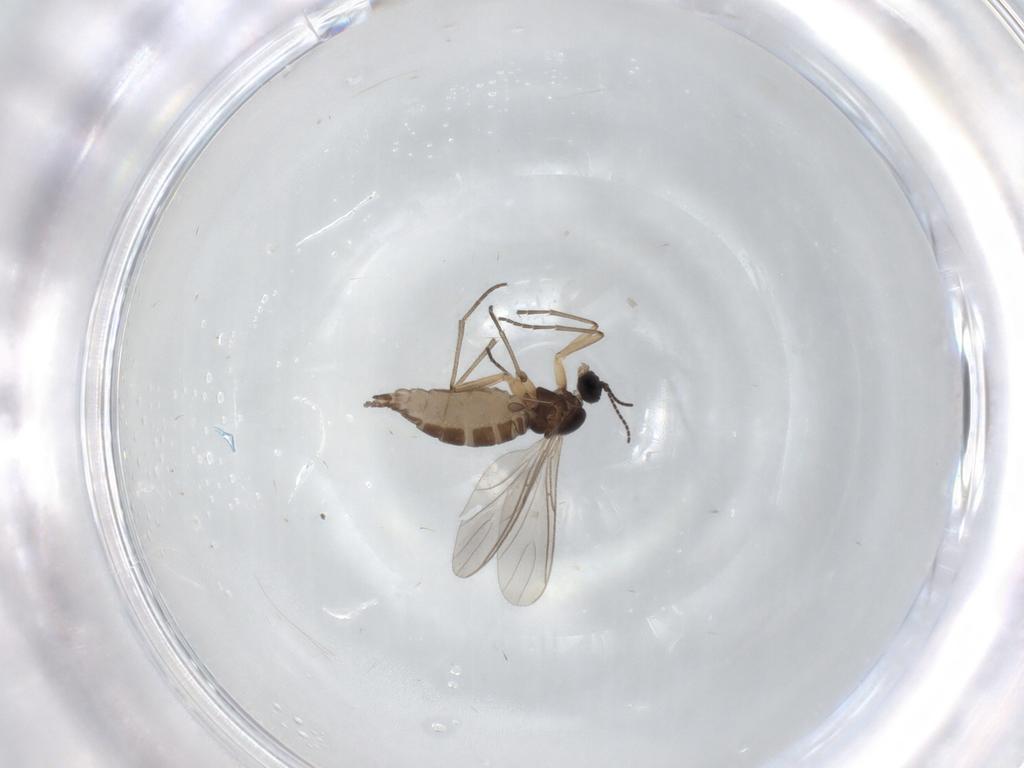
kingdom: Animalia
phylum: Arthropoda
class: Insecta
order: Diptera
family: Sciaridae
